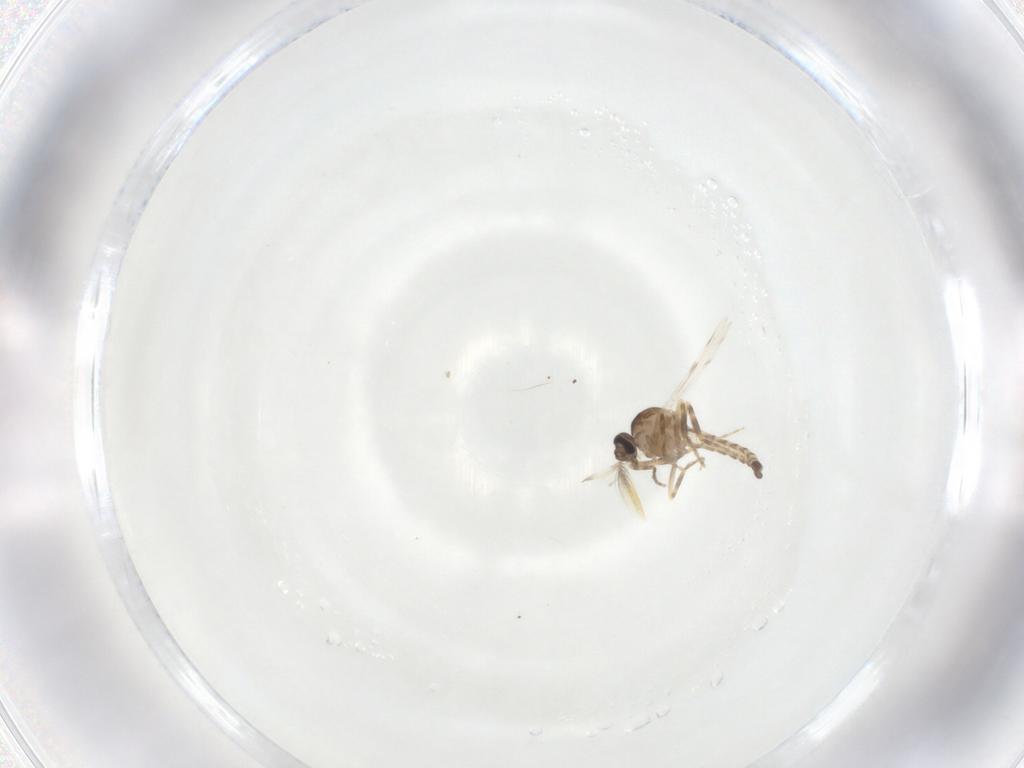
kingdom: Animalia
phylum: Arthropoda
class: Insecta
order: Diptera
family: Ceratopogonidae
